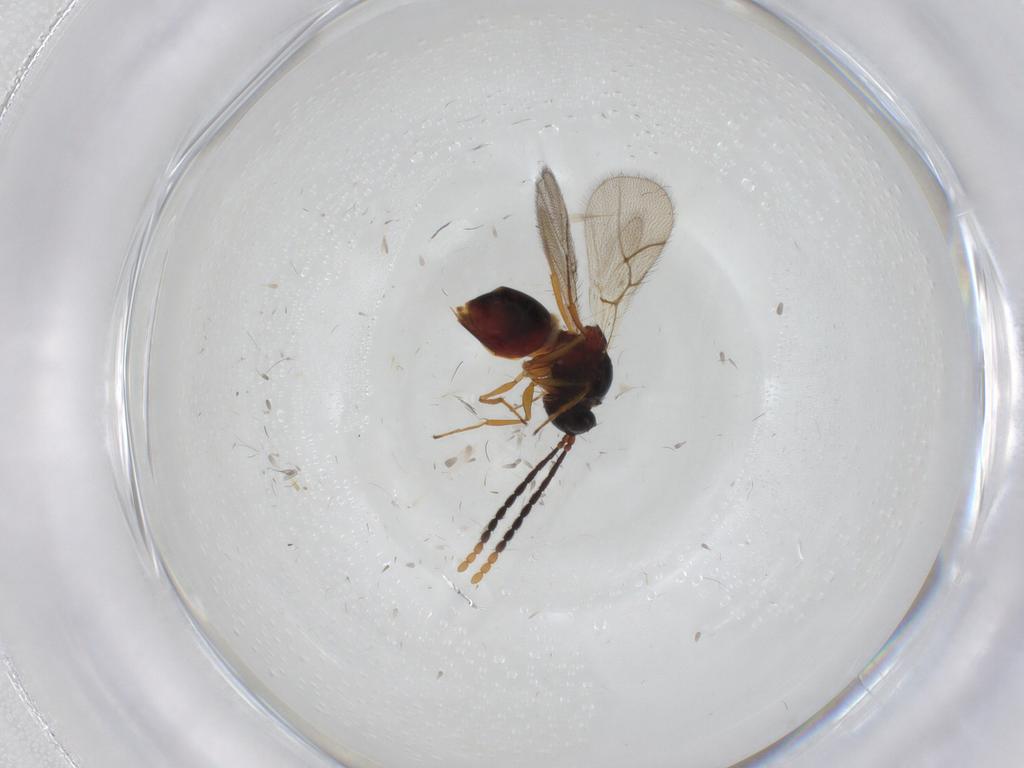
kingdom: Animalia
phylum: Arthropoda
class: Insecta
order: Hymenoptera
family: Figitidae
